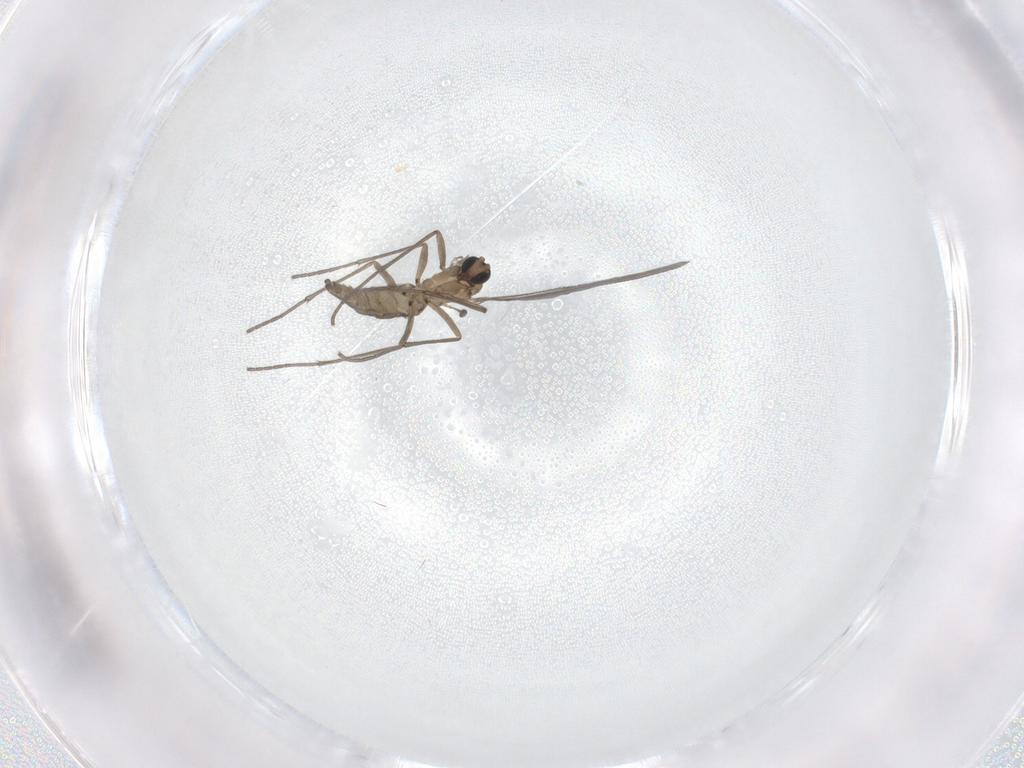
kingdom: Animalia
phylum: Arthropoda
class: Insecta
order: Diptera
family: Sciaridae
